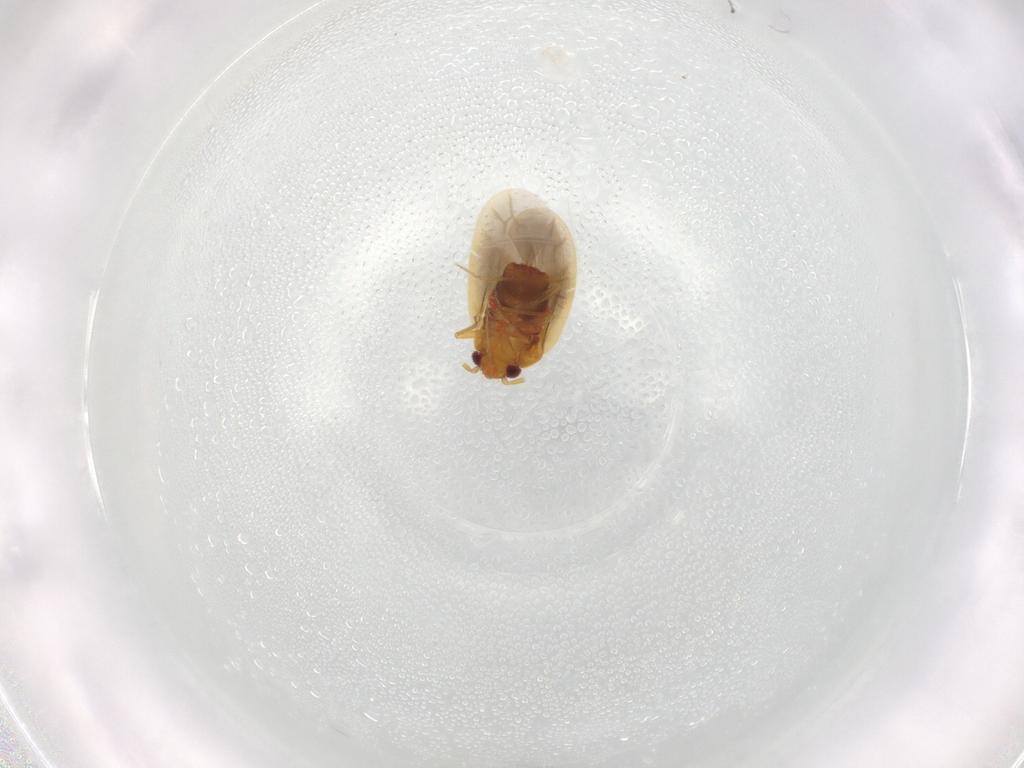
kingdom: Animalia
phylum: Arthropoda
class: Insecta
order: Hemiptera
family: Ceratocombidae
